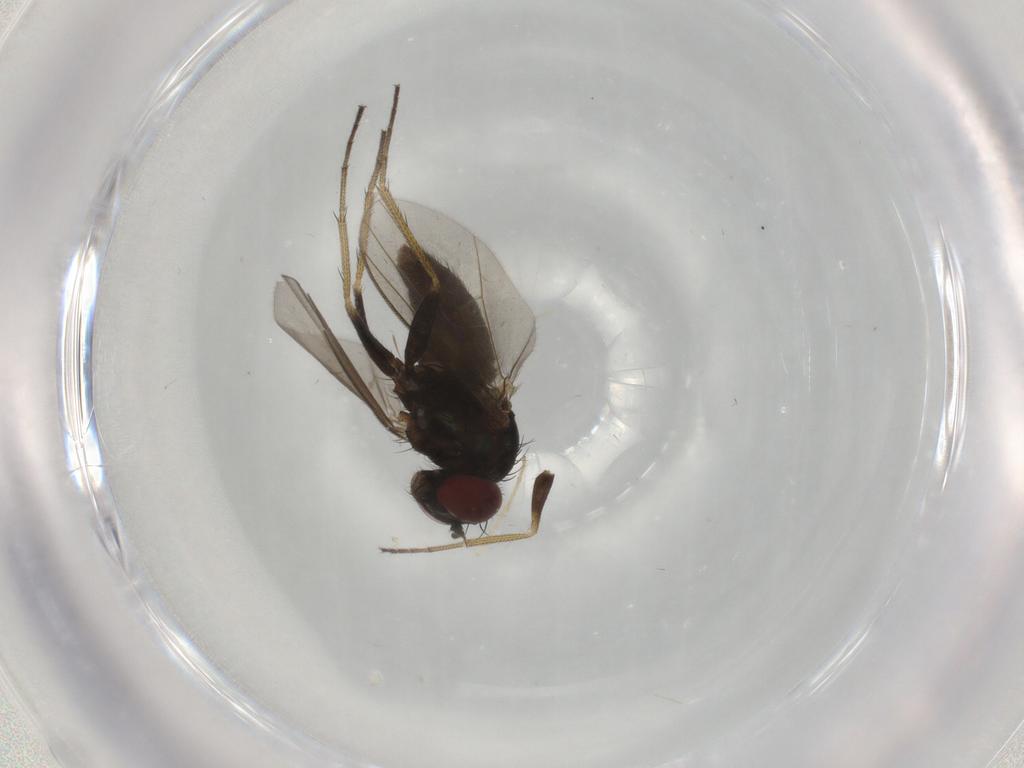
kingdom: Animalia
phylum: Arthropoda
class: Insecta
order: Diptera
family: Dolichopodidae
